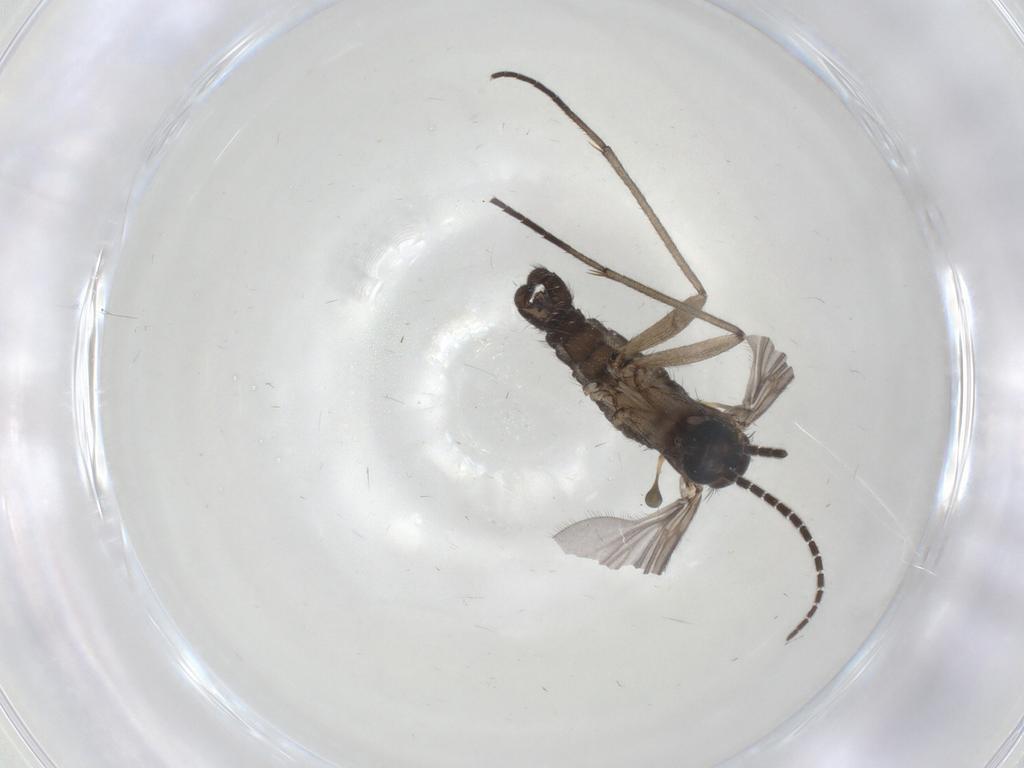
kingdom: Animalia
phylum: Arthropoda
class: Insecta
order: Diptera
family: Sciaridae
